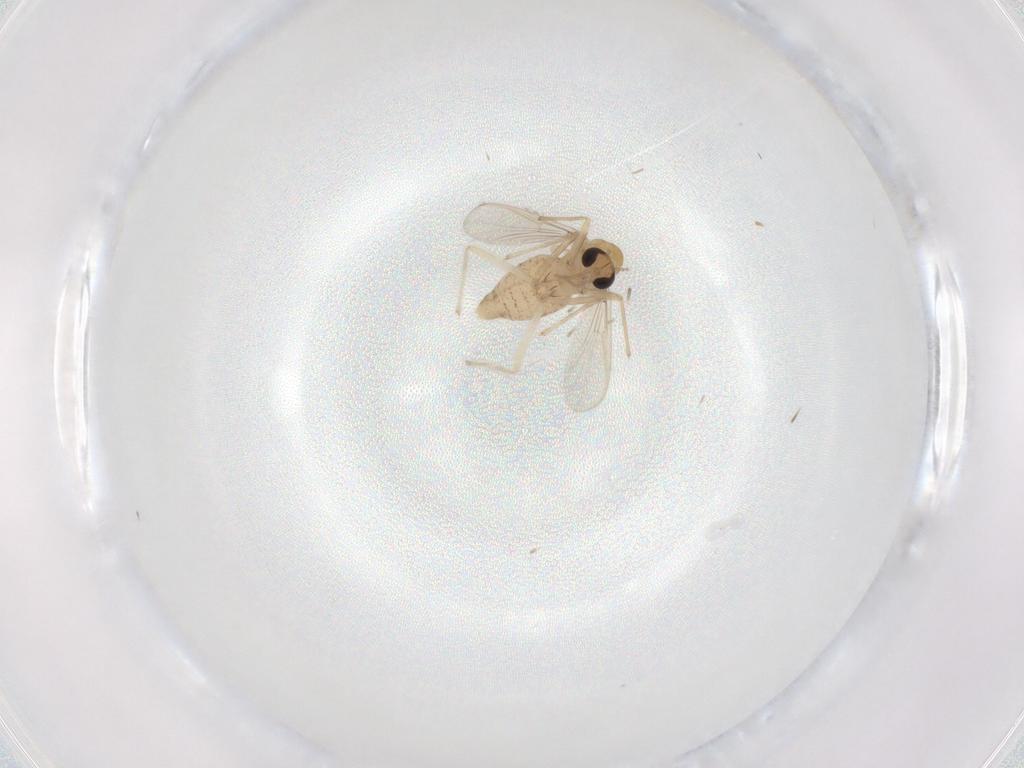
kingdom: Animalia
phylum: Arthropoda
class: Insecta
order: Diptera
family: Chironomidae
